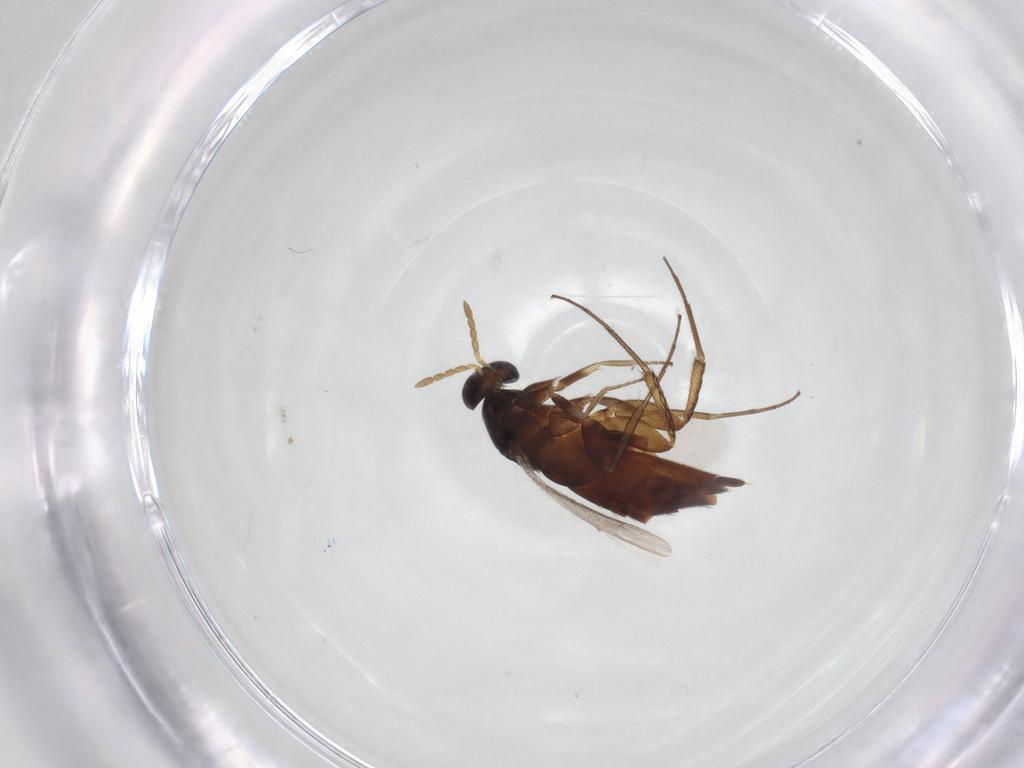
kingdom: Animalia
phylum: Arthropoda
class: Insecta
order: Hymenoptera
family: Eulophidae
